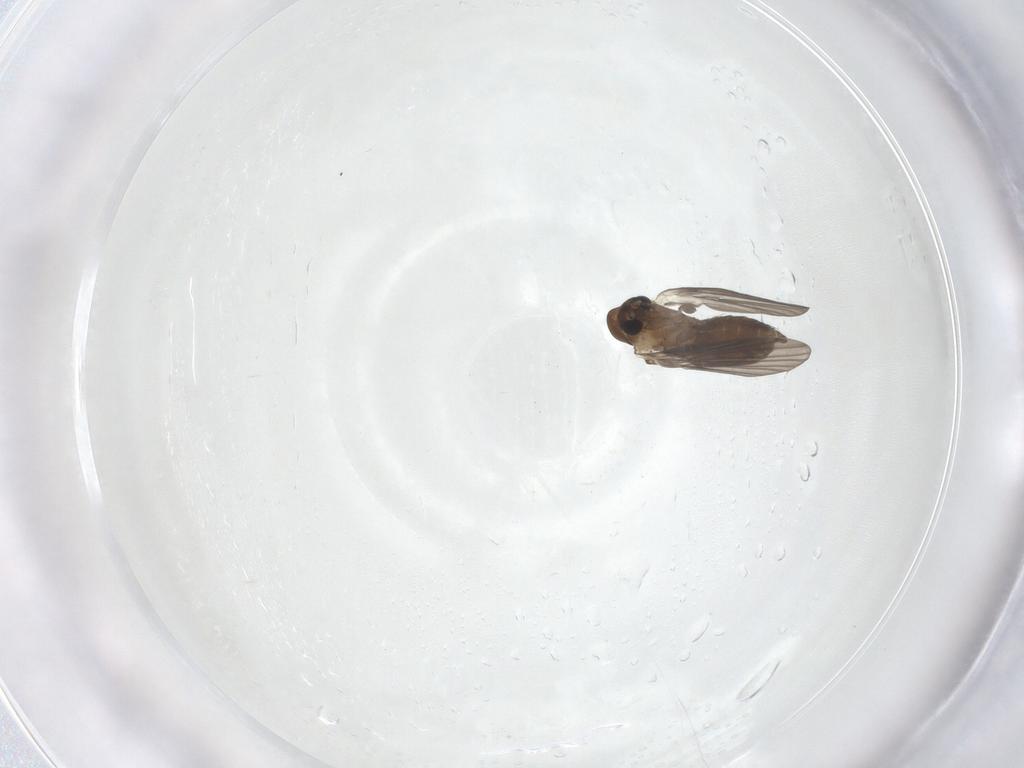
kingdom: Animalia
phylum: Arthropoda
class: Insecta
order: Diptera
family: Psychodidae
